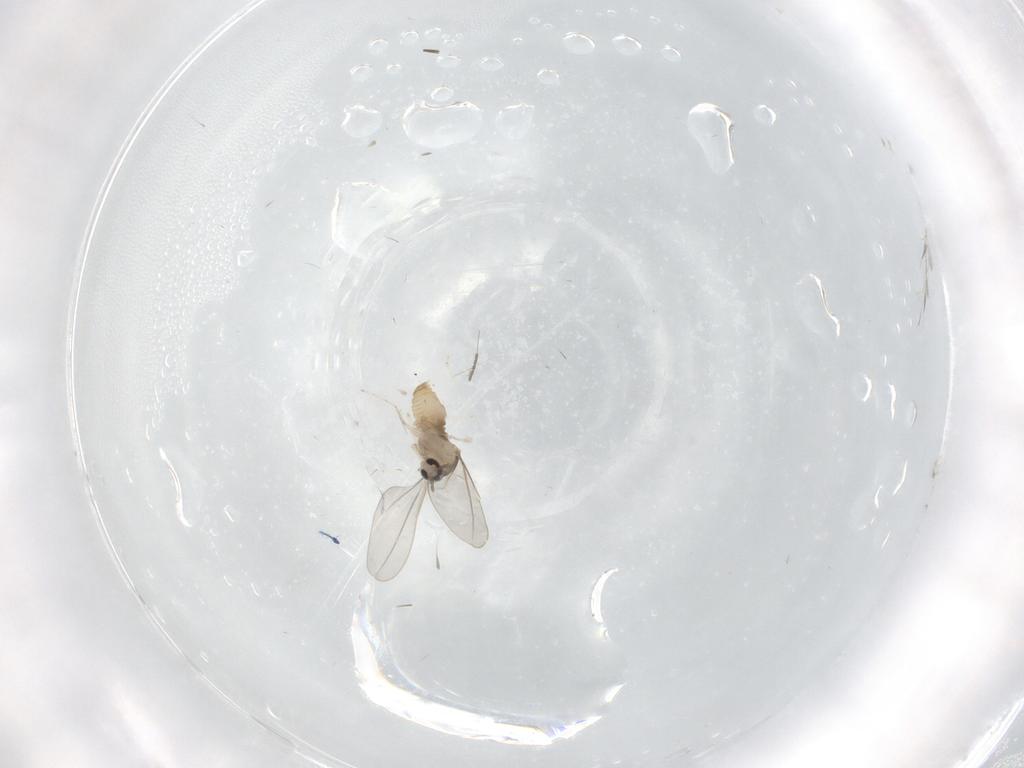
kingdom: Animalia
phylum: Arthropoda
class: Insecta
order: Diptera
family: Cecidomyiidae
